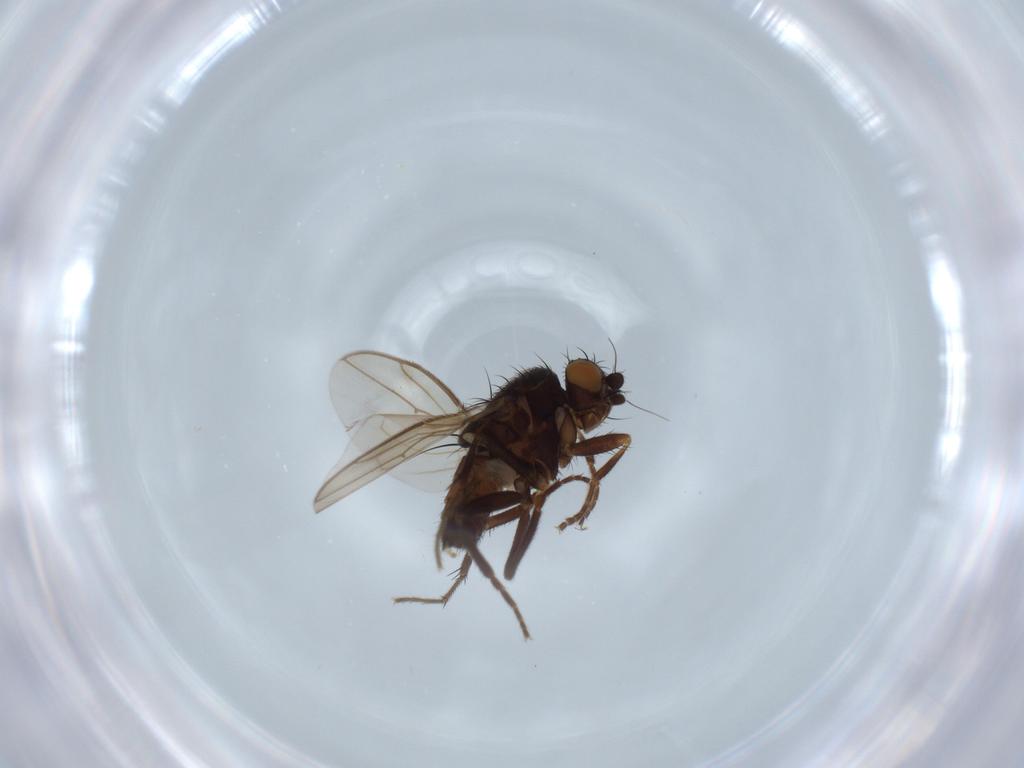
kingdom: Animalia
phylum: Arthropoda
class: Insecta
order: Diptera
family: Sphaeroceridae
